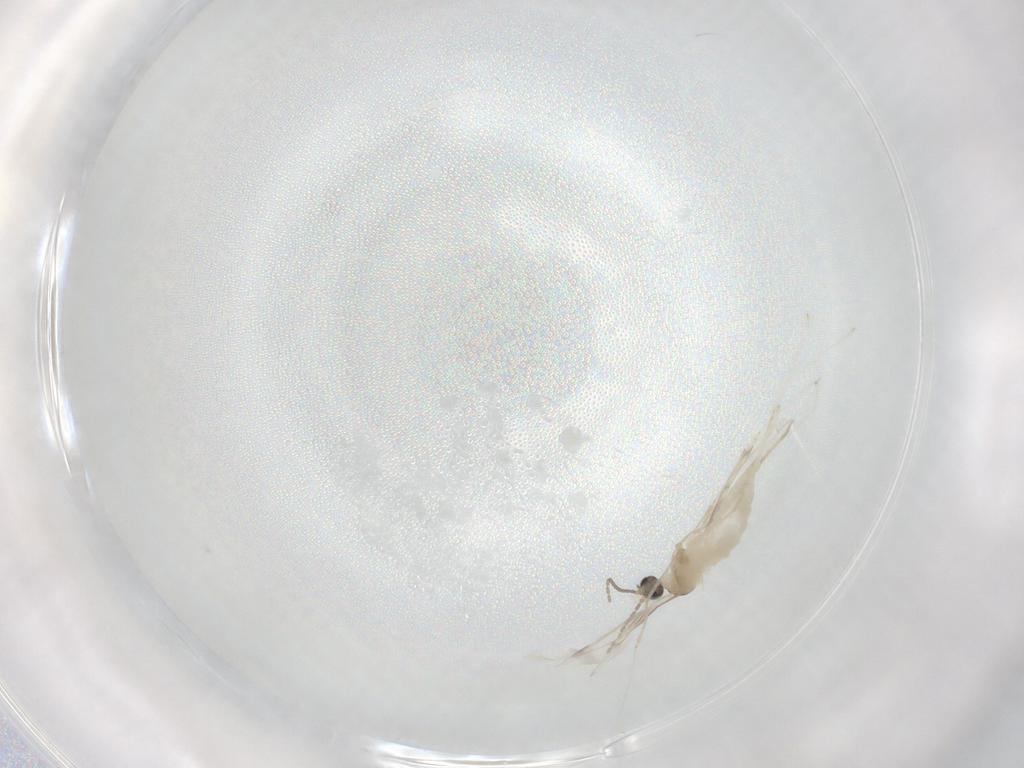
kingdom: Animalia
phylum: Arthropoda
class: Insecta
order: Diptera
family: Cecidomyiidae
